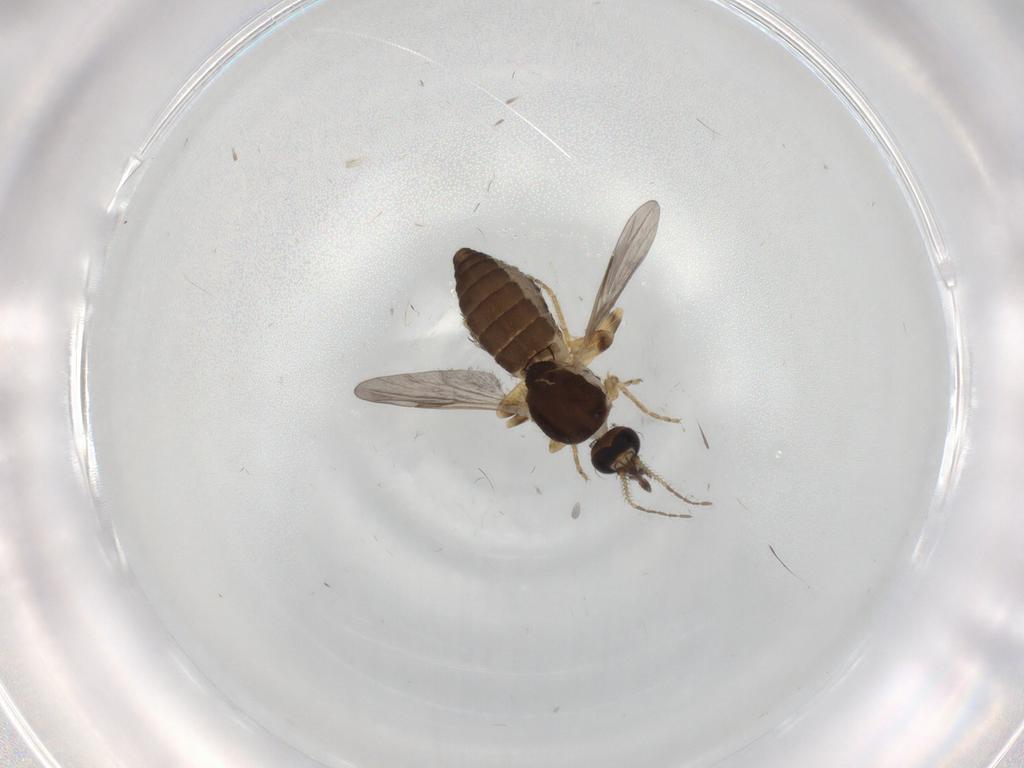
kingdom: Animalia
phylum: Arthropoda
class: Insecta
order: Diptera
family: Ceratopogonidae
